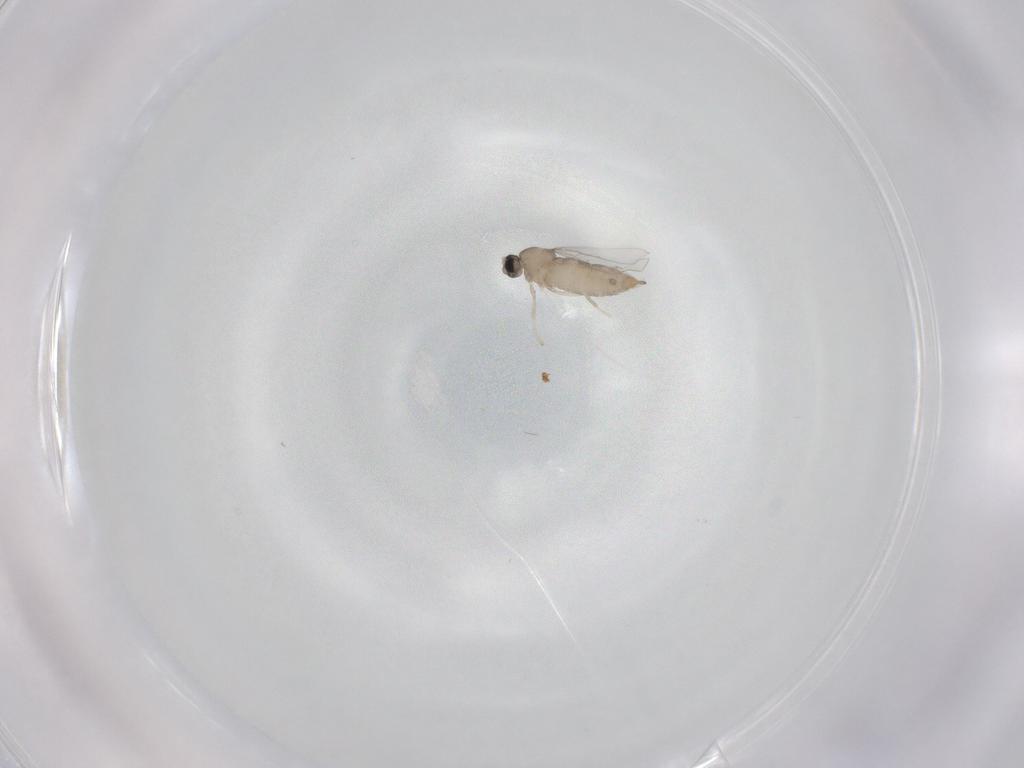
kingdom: Animalia
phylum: Arthropoda
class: Insecta
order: Diptera
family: Cecidomyiidae
